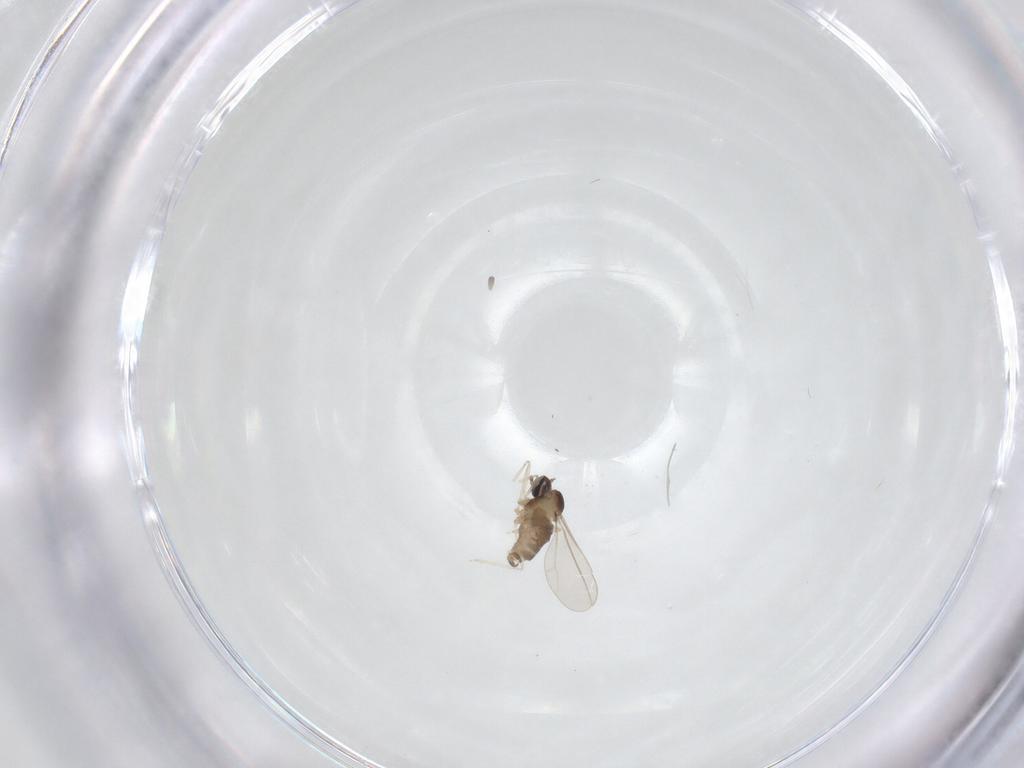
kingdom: Animalia
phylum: Arthropoda
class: Insecta
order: Diptera
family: Cecidomyiidae
